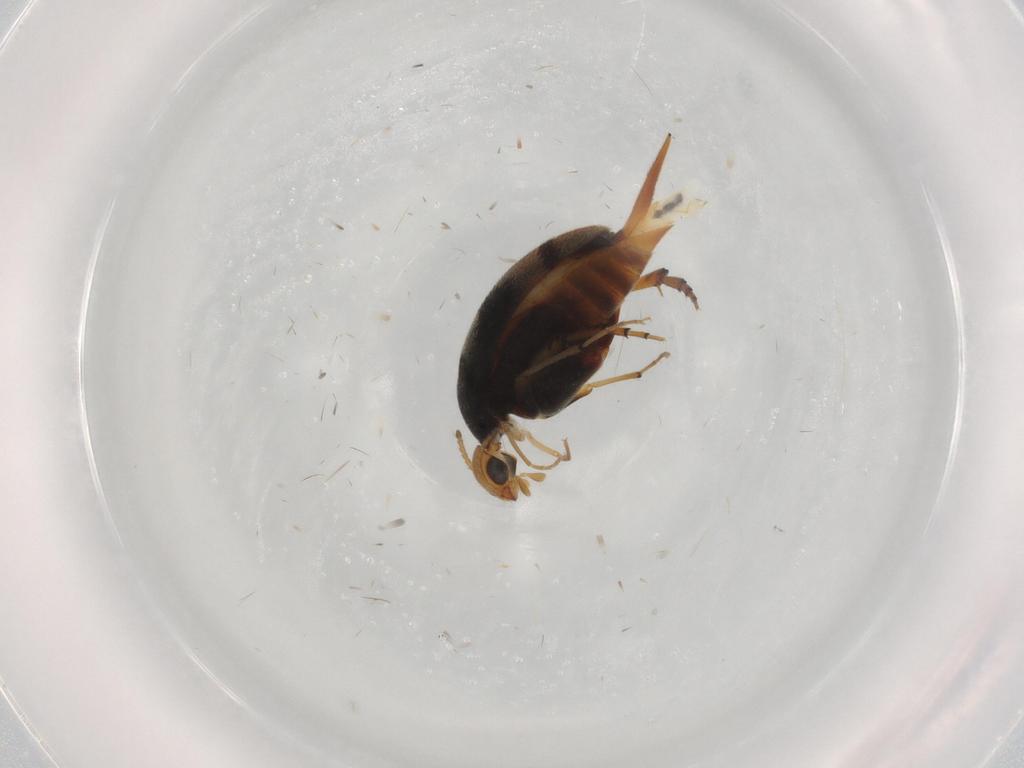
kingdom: Animalia
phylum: Arthropoda
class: Insecta
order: Coleoptera
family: Mordellidae
